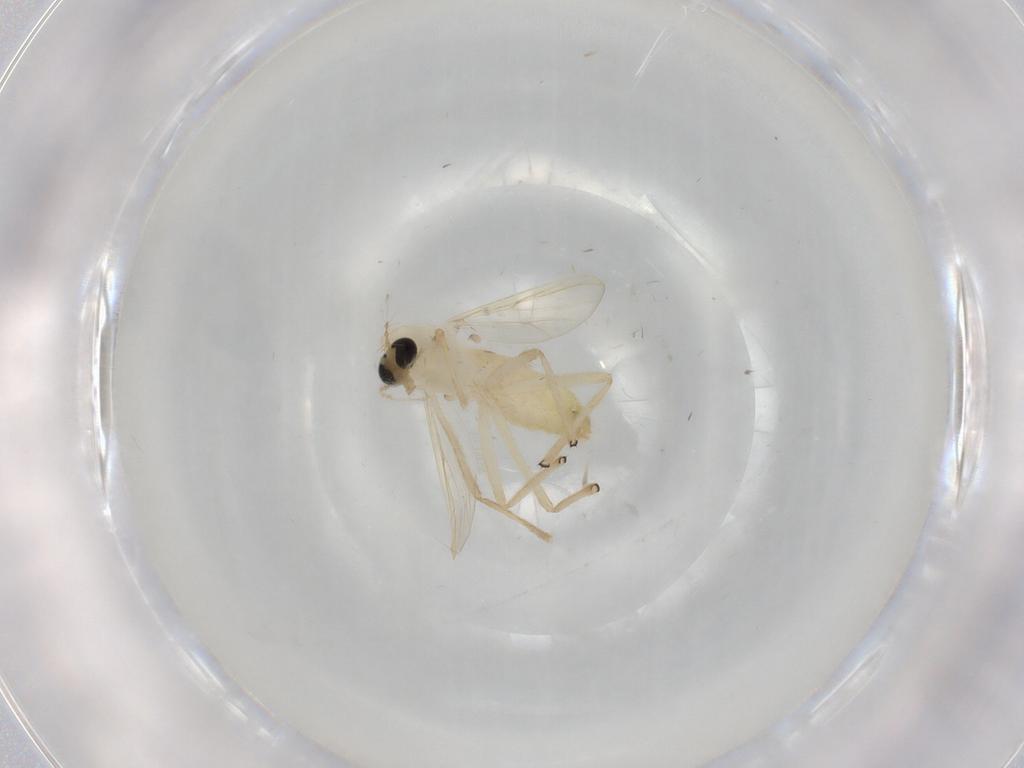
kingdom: Animalia
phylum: Arthropoda
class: Insecta
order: Diptera
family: Chironomidae
